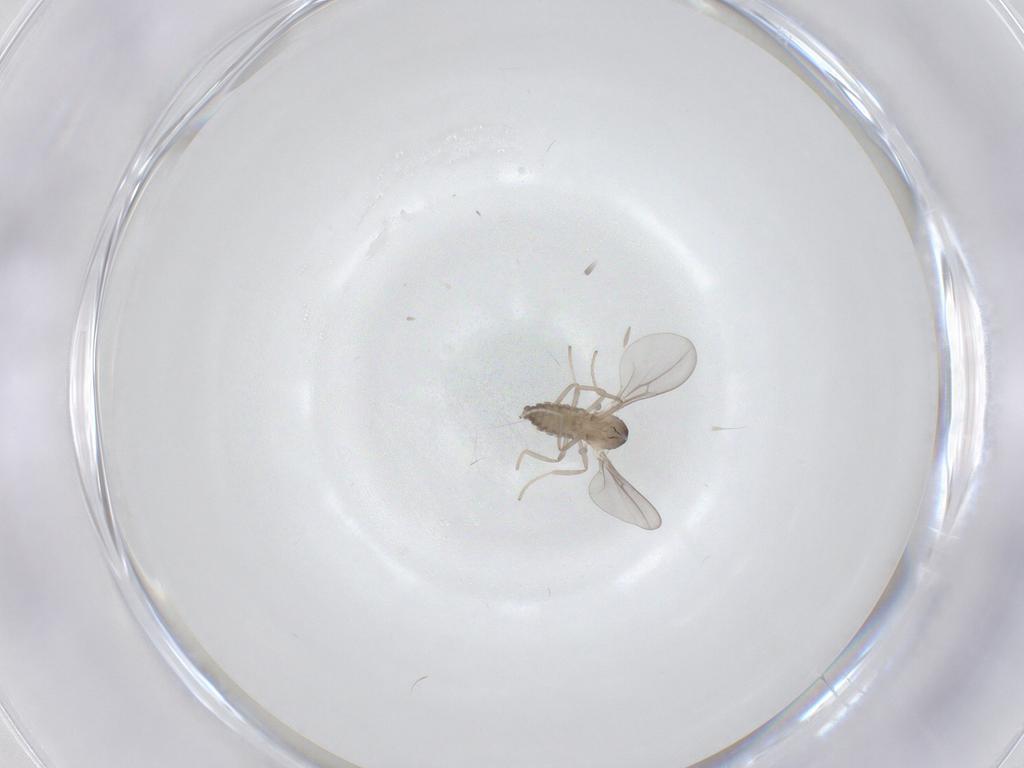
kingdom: Animalia
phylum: Arthropoda
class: Insecta
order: Diptera
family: Cecidomyiidae
